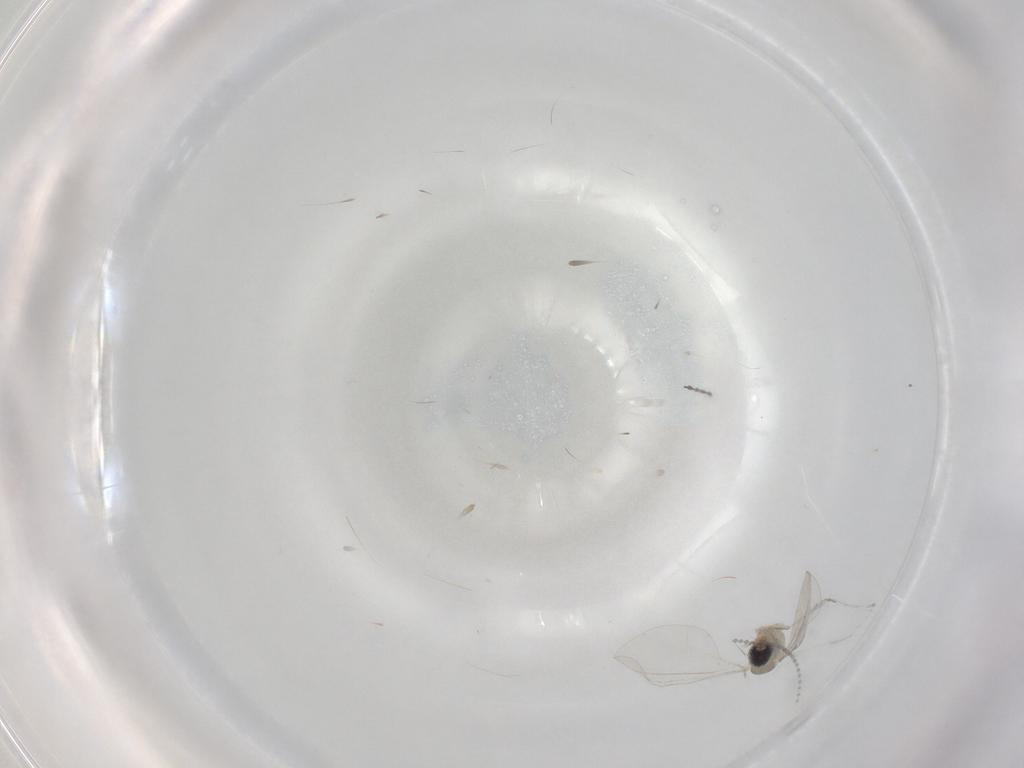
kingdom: Animalia
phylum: Arthropoda
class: Insecta
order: Diptera
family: Cecidomyiidae
